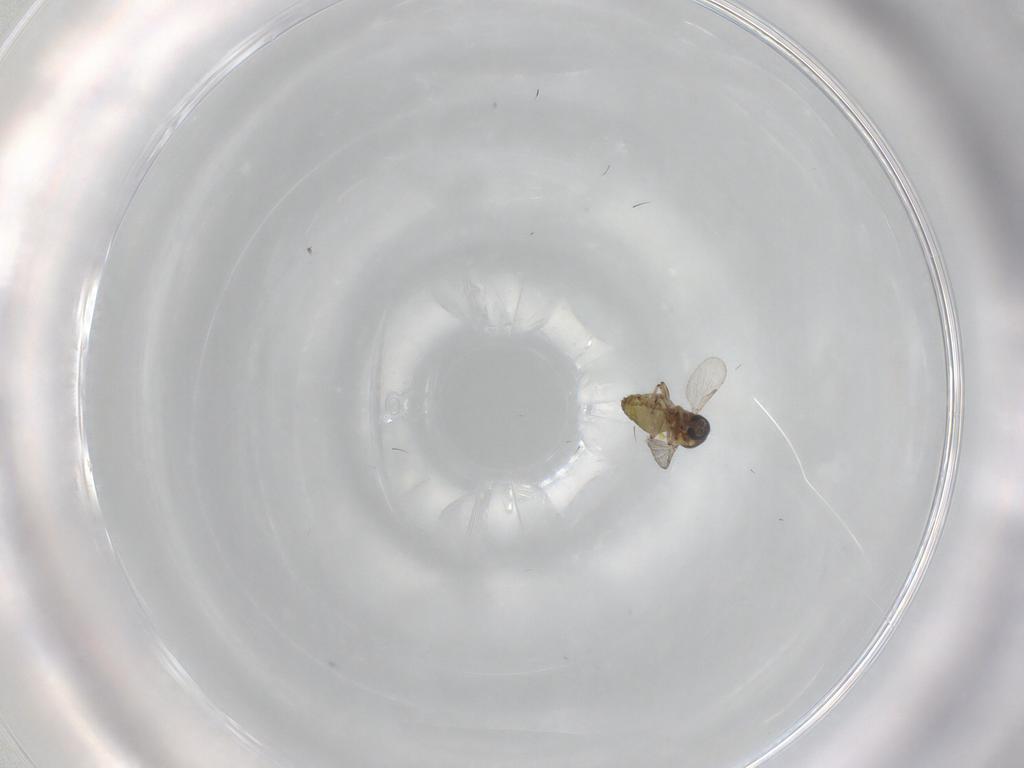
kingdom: Animalia
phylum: Arthropoda
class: Insecta
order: Diptera
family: Ceratopogonidae
